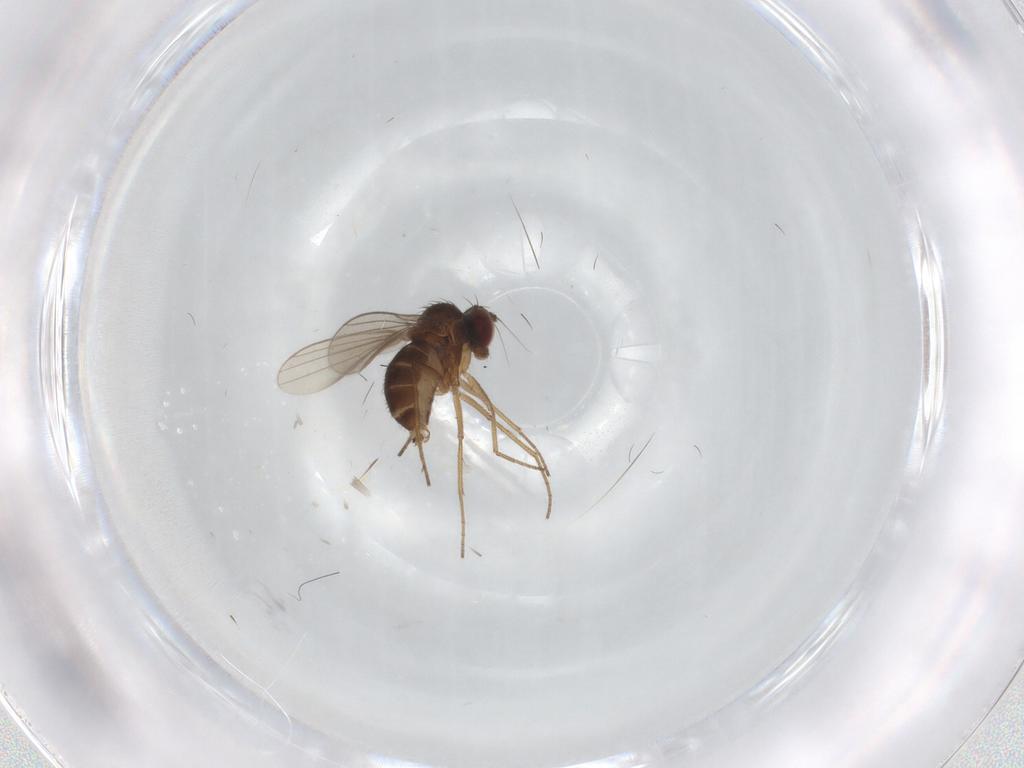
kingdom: Animalia
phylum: Arthropoda
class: Insecta
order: Diptera
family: Dolichopodidae
